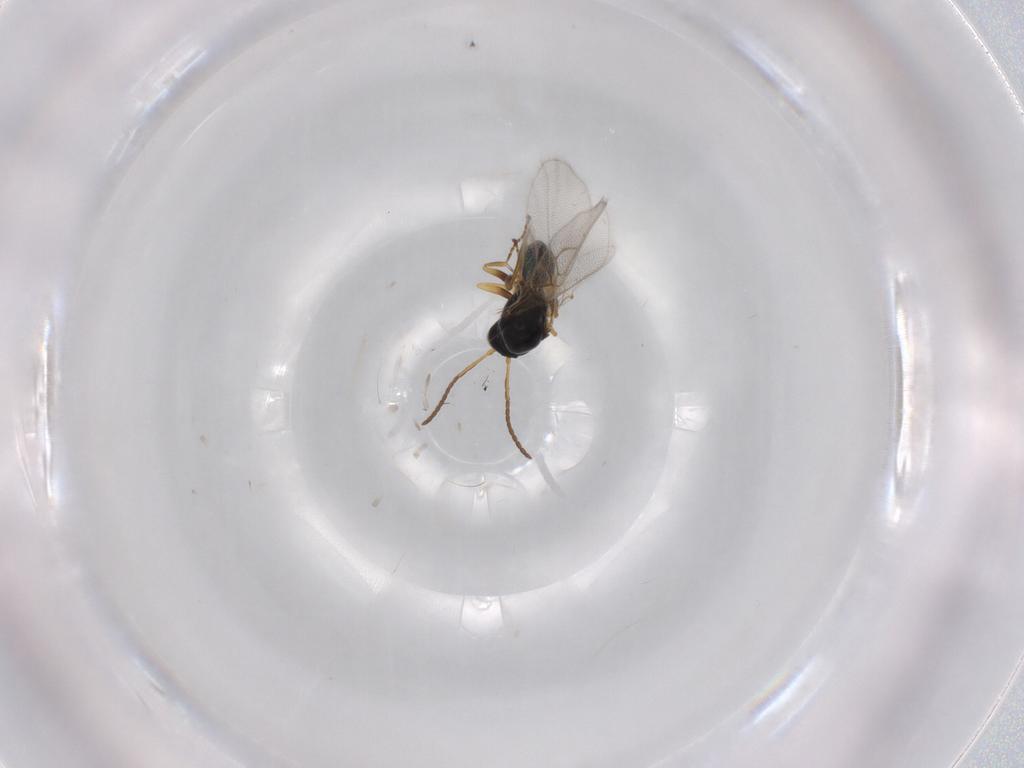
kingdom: Animalia
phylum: Arthropoda
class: Insecta
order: Hymenoptera
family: Figitidae
